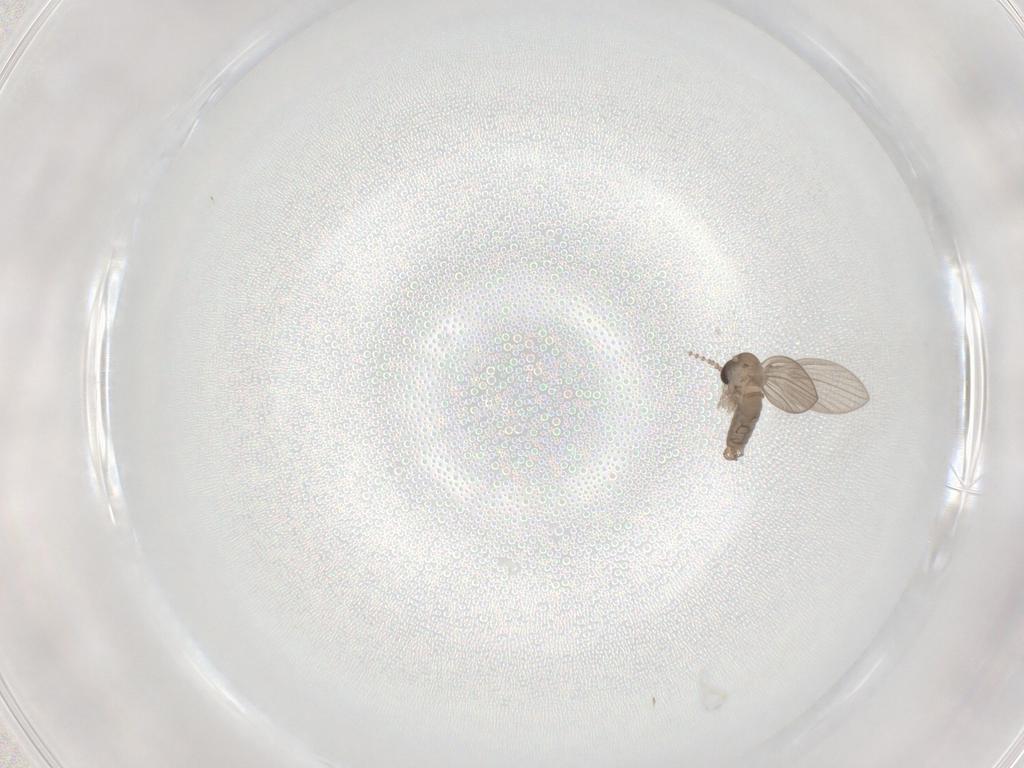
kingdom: Animalia
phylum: Arthropoda
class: Insecta
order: Diptera
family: Psychodidae
